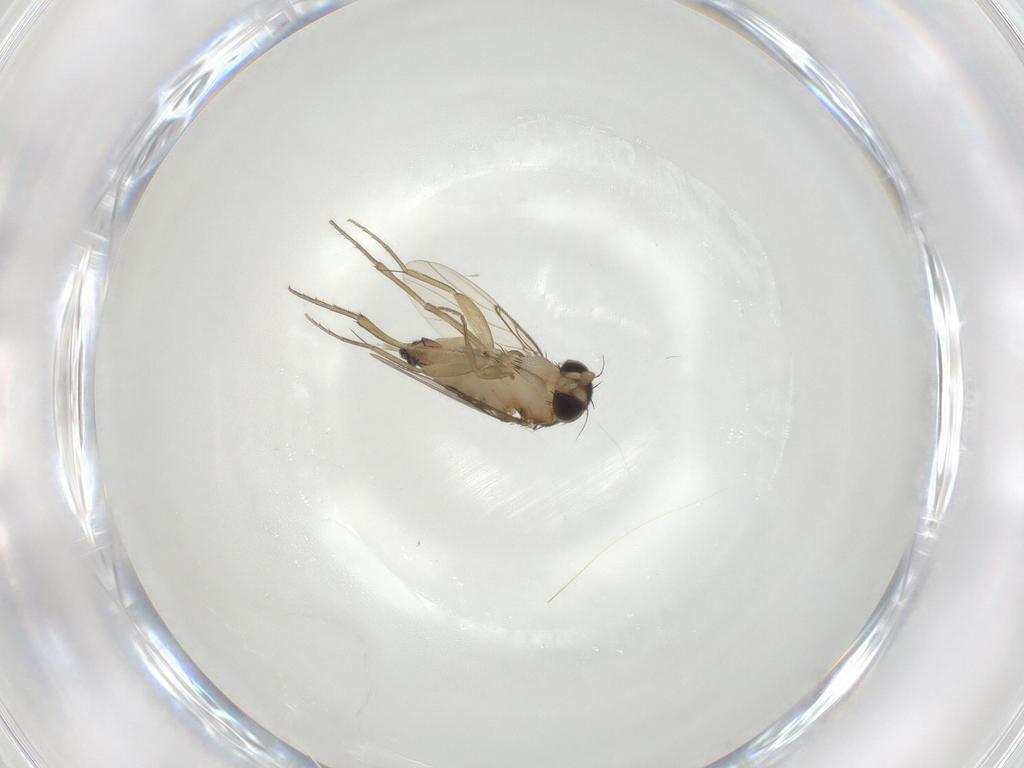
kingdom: Animalia
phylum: Arthropoda
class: Insecta
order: Diptera
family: Phoridae
